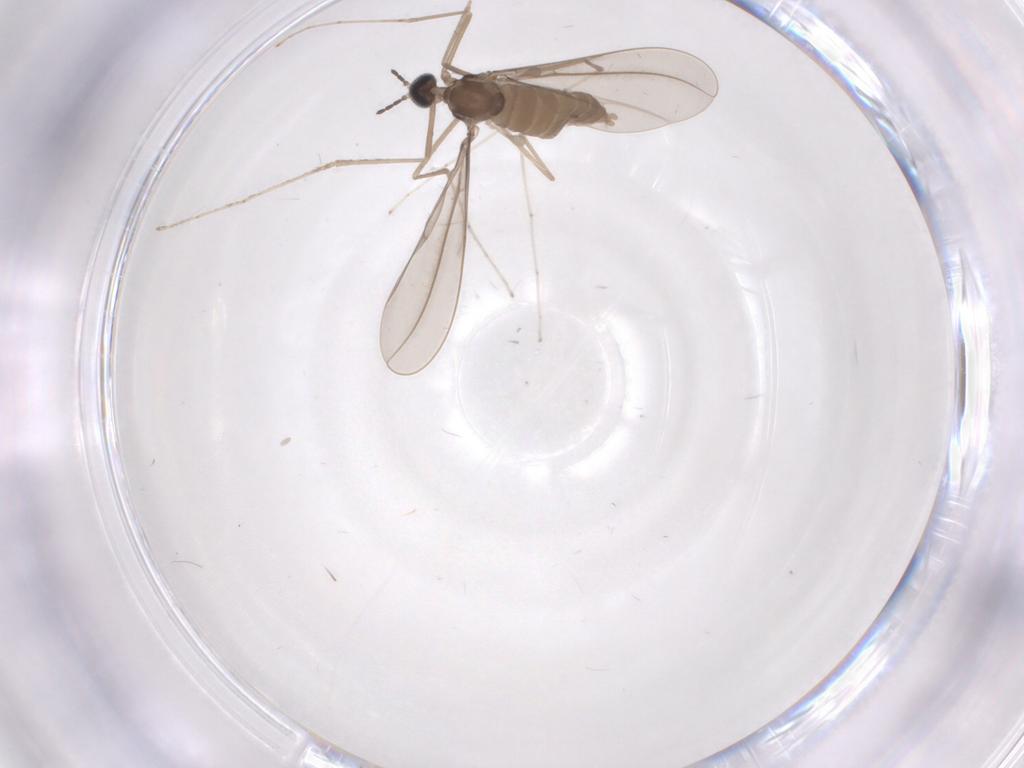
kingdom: Animalia
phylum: Arthropoda
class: Insecta
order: Diptera
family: Cecidomyiidae
